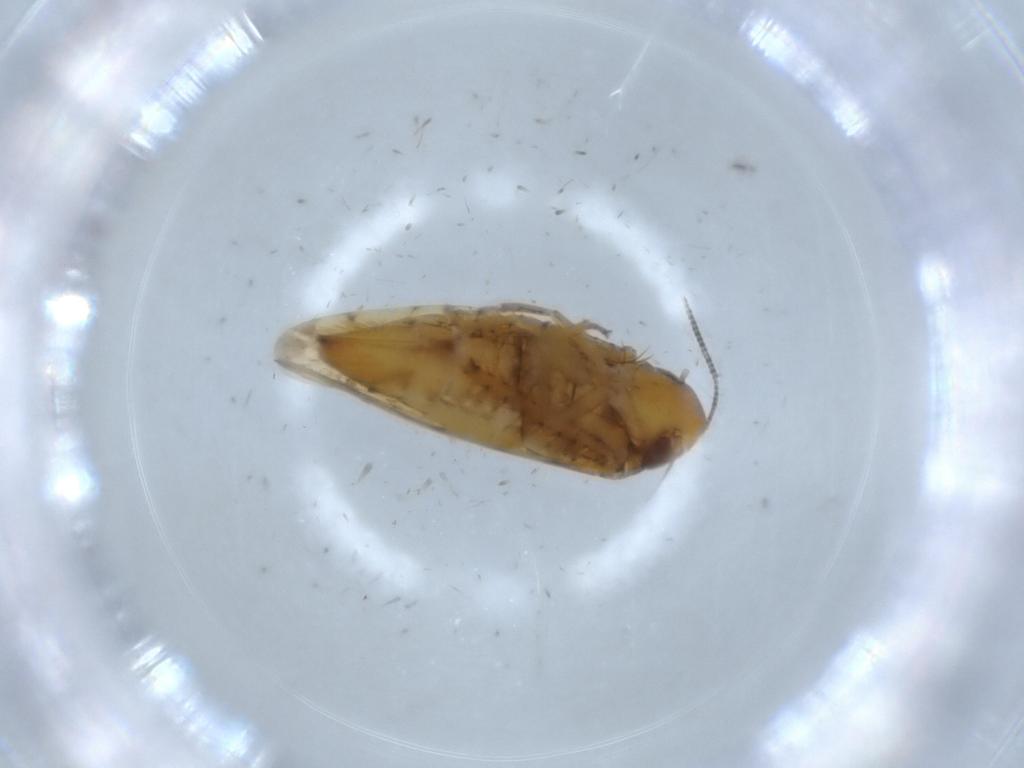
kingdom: Animalia
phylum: Arthropoda
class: Insecta
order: Hemiptera
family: Cicadellidae
